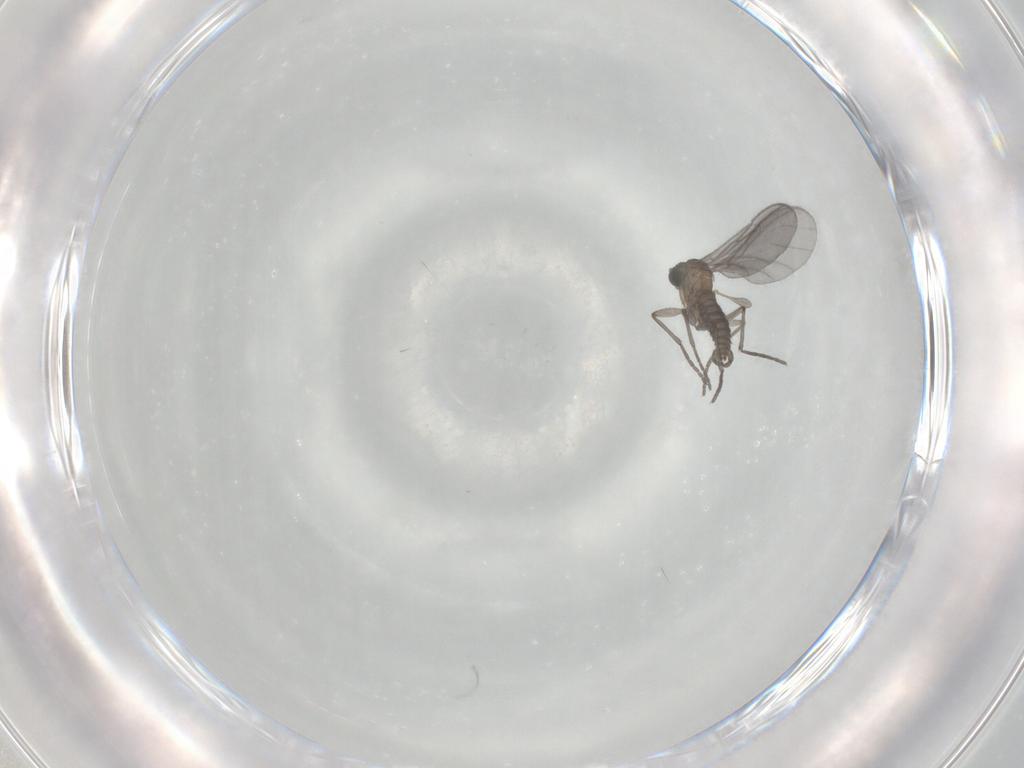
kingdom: Animalia
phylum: Arthropoda
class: Insecta
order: Diptera
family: Sciaridae
